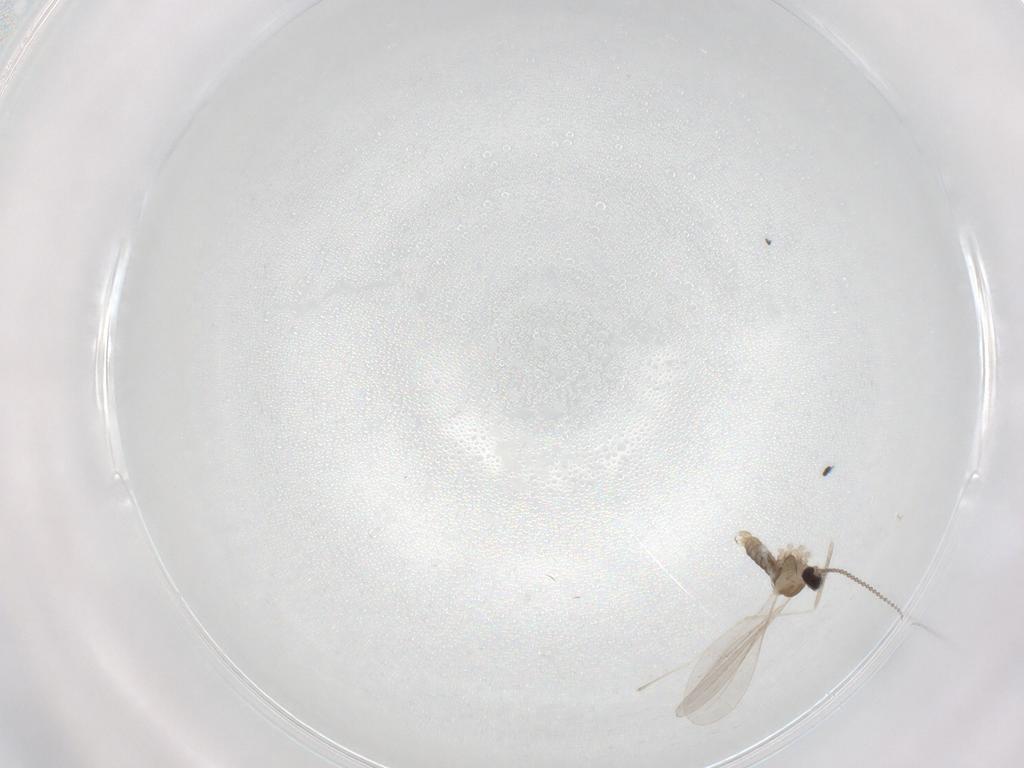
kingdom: Animalia
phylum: Arthropoda
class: Insecta
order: Diptera
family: Cecidomyiidae
